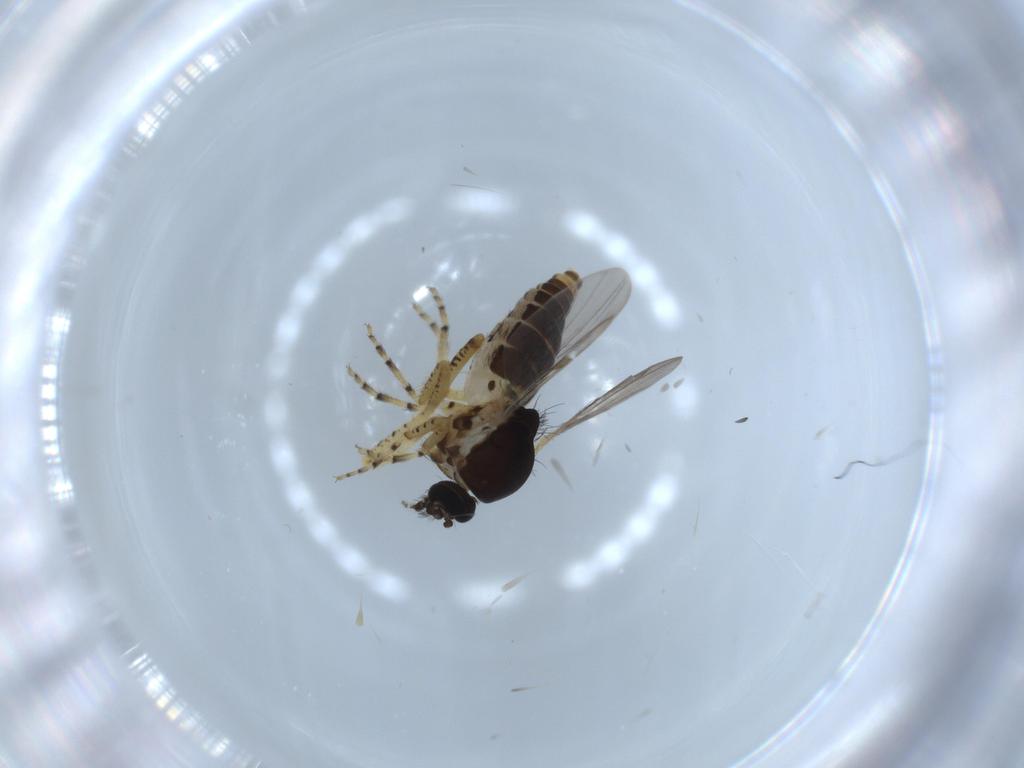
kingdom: Animalia
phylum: Arthropoda
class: Insecta
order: Diptera
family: Ceratopogonidae
